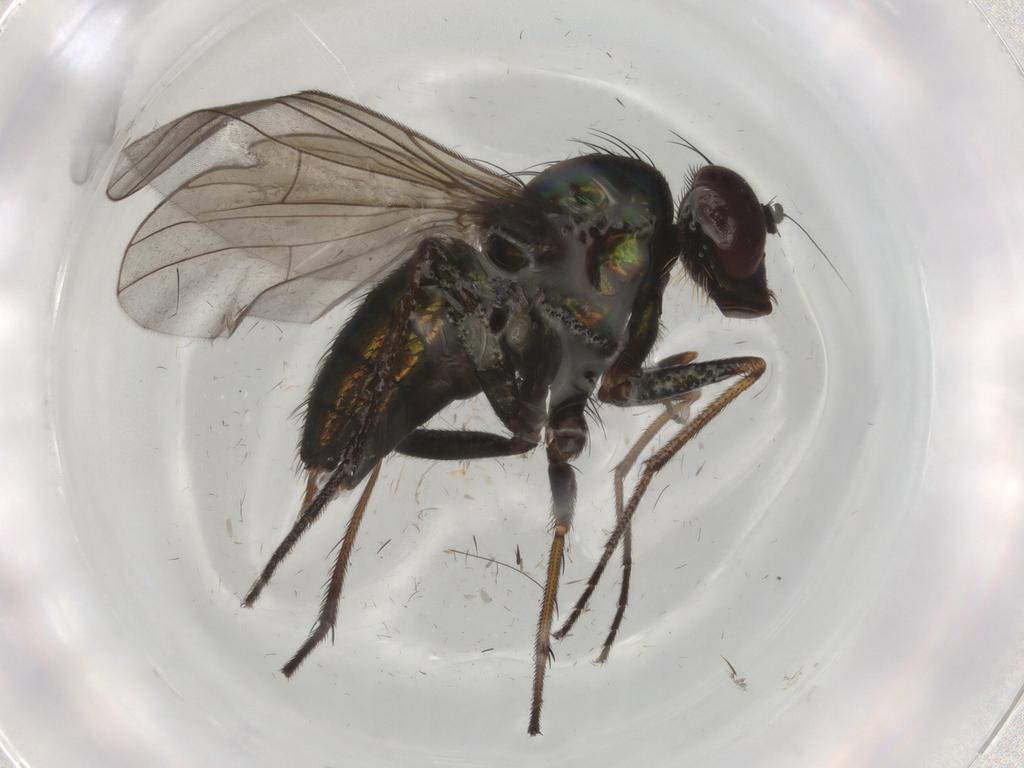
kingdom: Animalia
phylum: Arthropoda
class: Insecta
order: Diptera
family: Dolichopodidae
